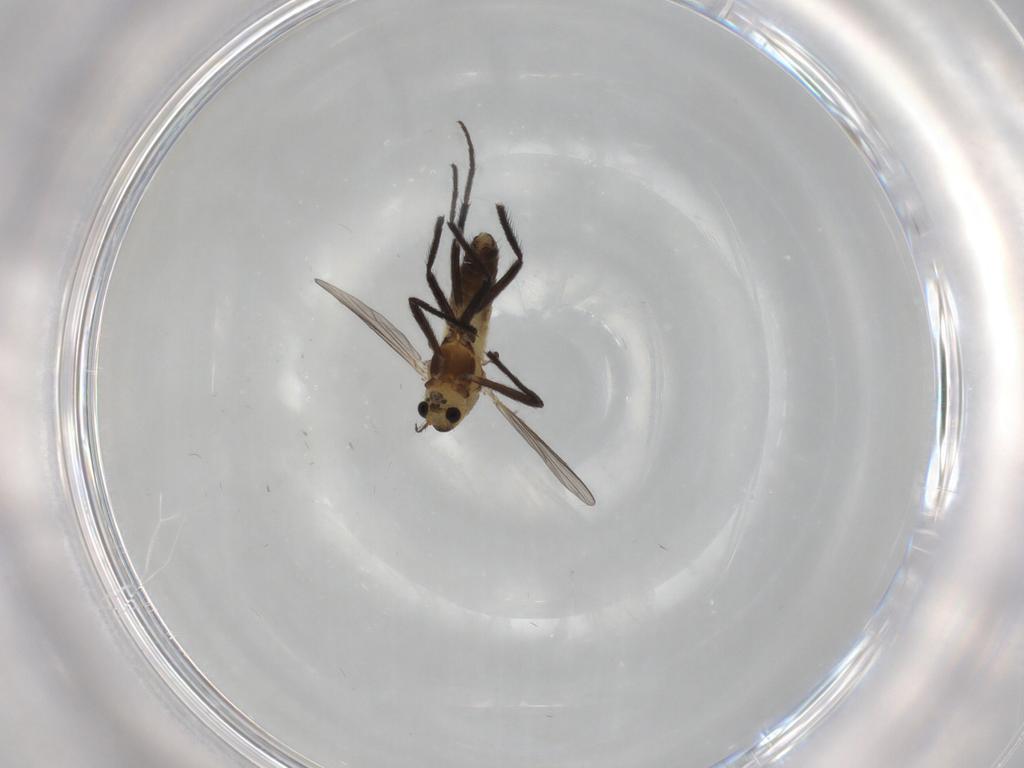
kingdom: Animalia
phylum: Arthropoda
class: Insecta
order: Diptera
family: Chironomidae
